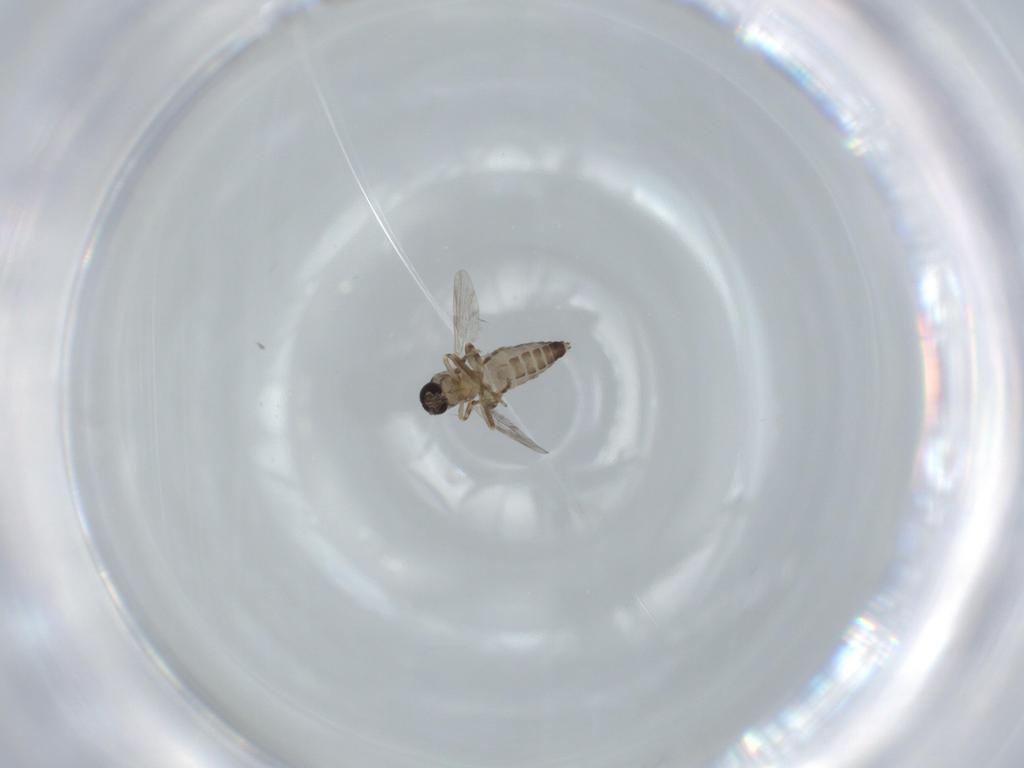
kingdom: Animalia
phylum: Arthropoda
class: Insecta
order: Diptera
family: Ceratopogonidae
